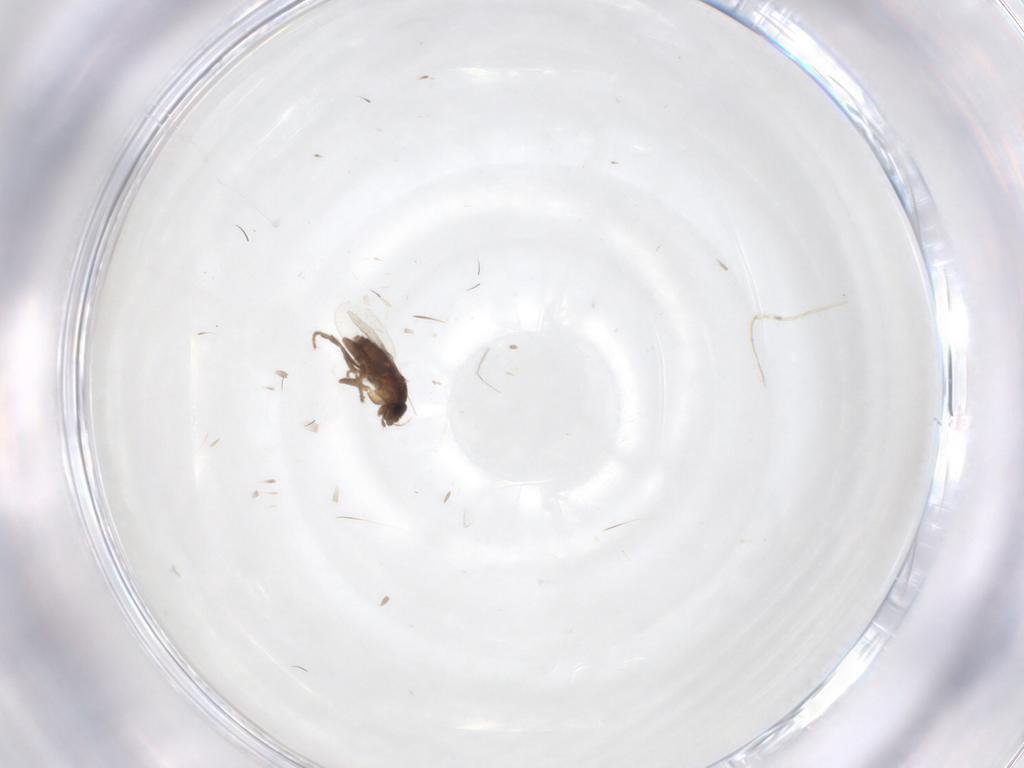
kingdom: Animalia
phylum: Arthropoda
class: Insecta
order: Diptera
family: Phoridae
